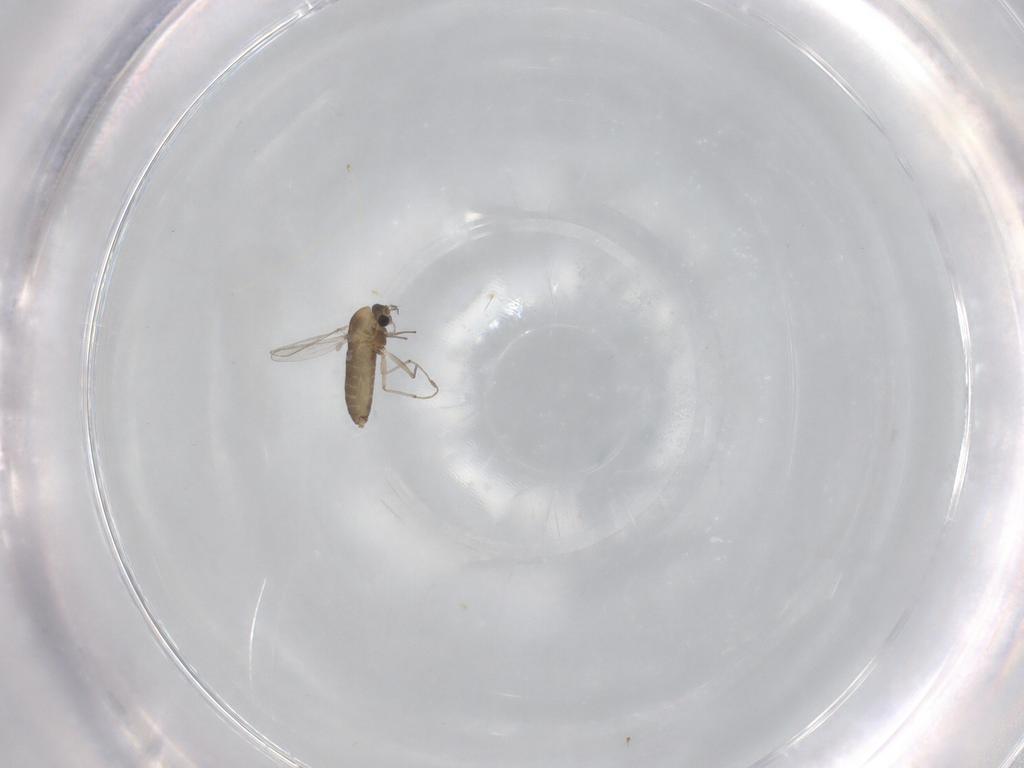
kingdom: Animalia
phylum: Arthropoda
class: Insecta
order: Diptera
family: Chironomidae
